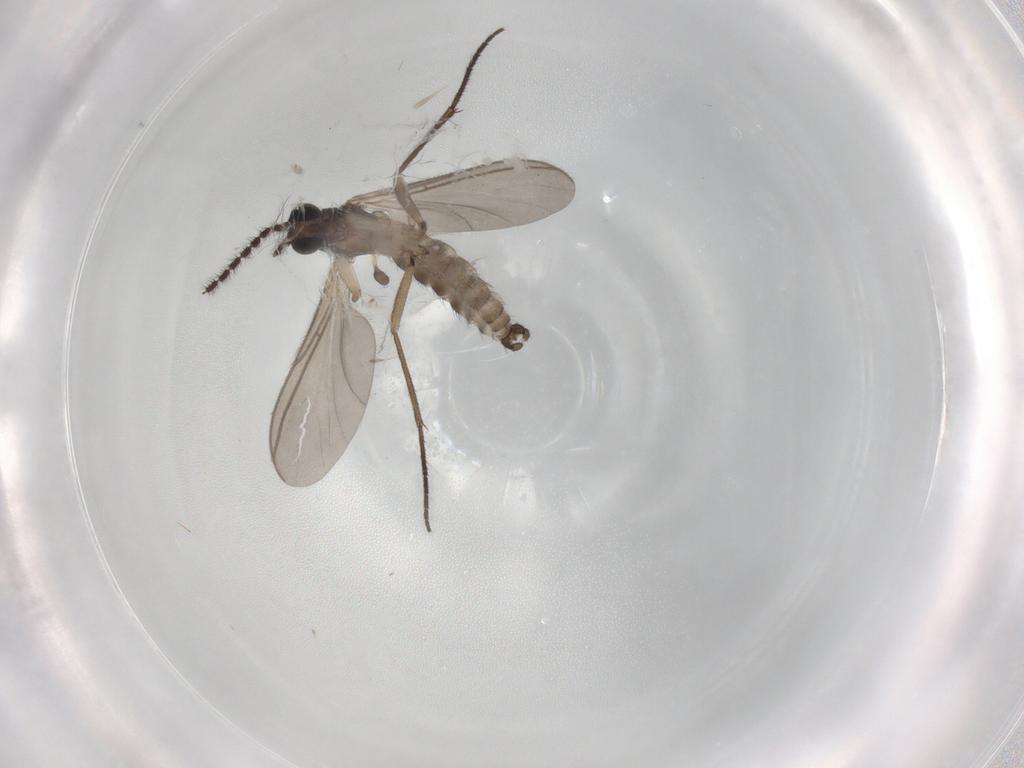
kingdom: Animalia
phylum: Arthropoda
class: Insecta
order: Diptera
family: Sciaridae
